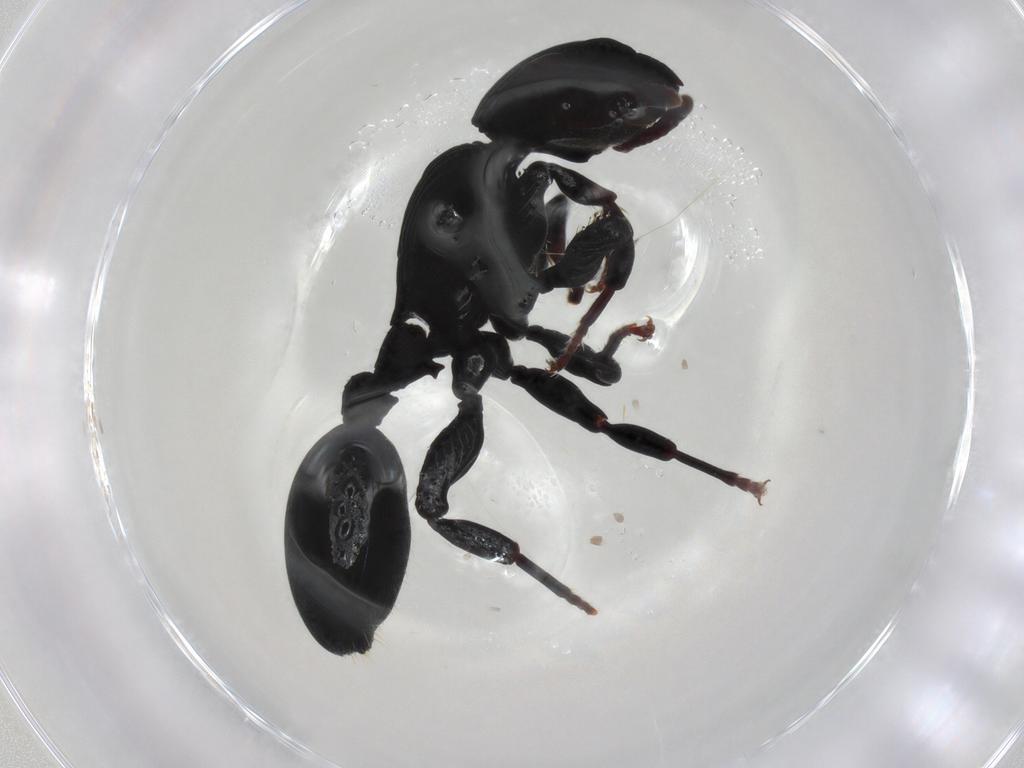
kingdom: Animalia
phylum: Arthropoda
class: Insecta
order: Hymenoptera
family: Formicidae
